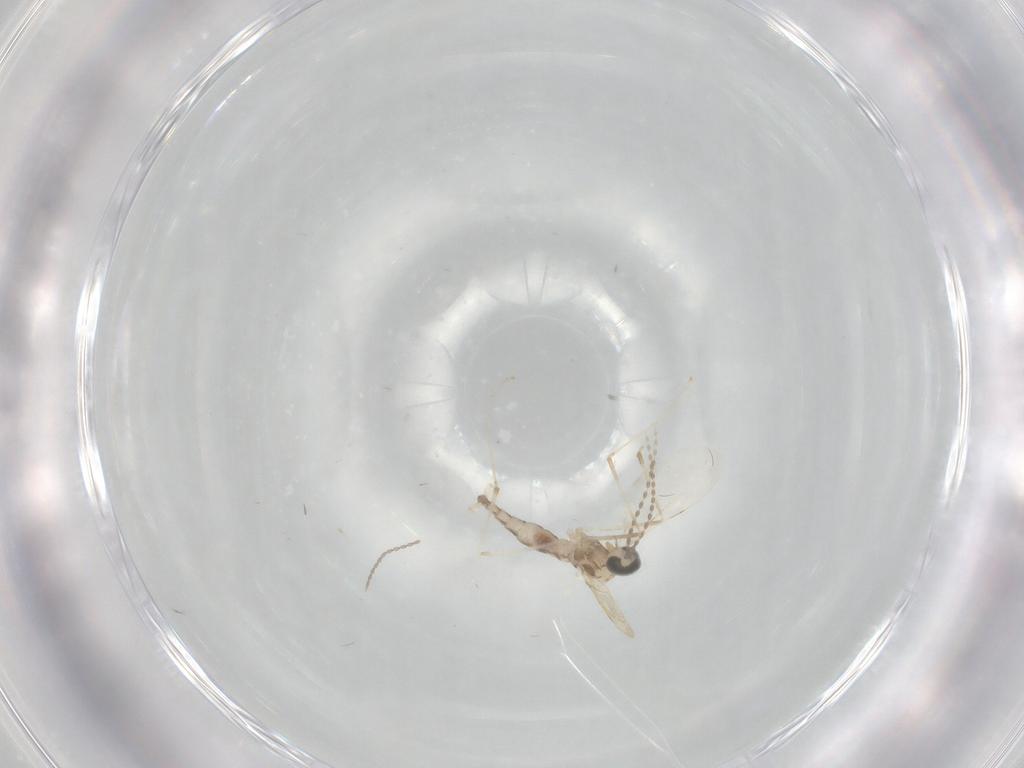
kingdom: Animalia
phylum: Arthropoda
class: Insecta
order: Diptera
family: Cecidomyiidae
